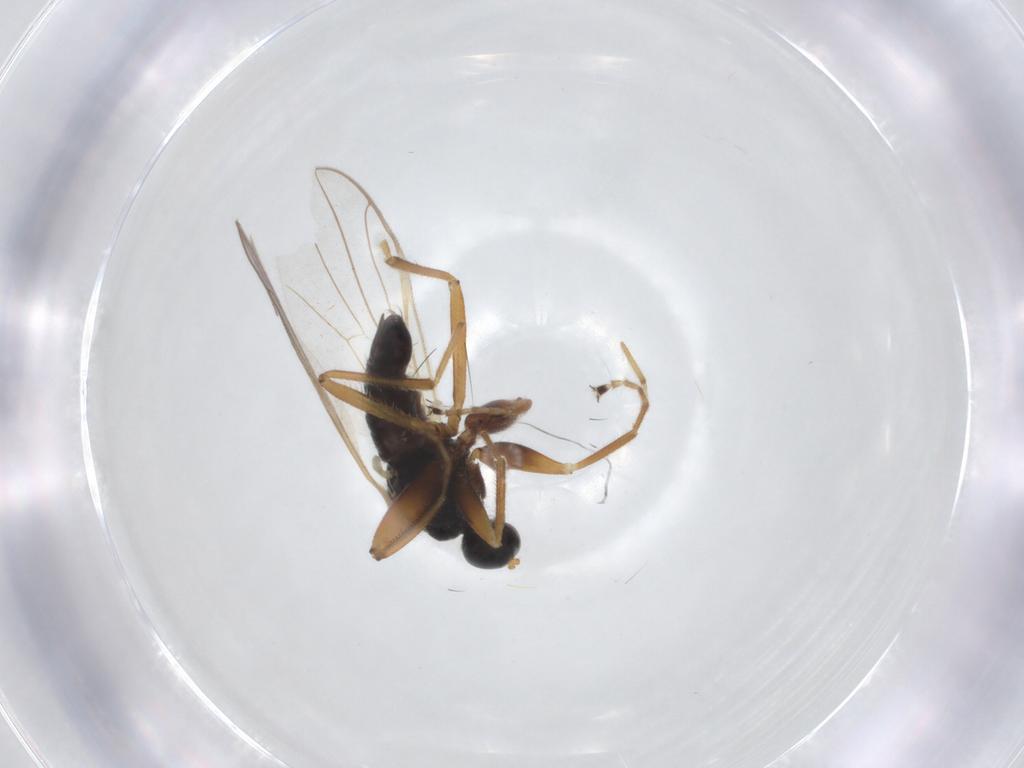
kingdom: Animalia
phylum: Arthropoda
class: Insecta
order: Diptera
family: Hybotidae
